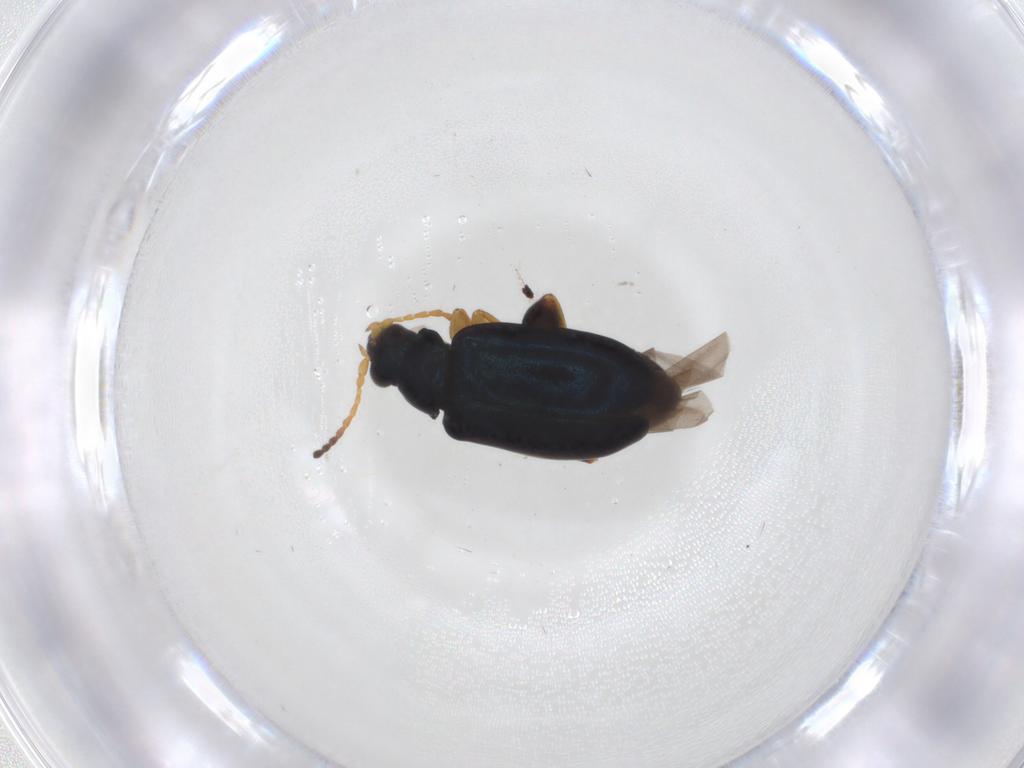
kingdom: Animalia
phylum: Arthropoda
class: Insecta
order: Coleoptera
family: Chrysomelidae
